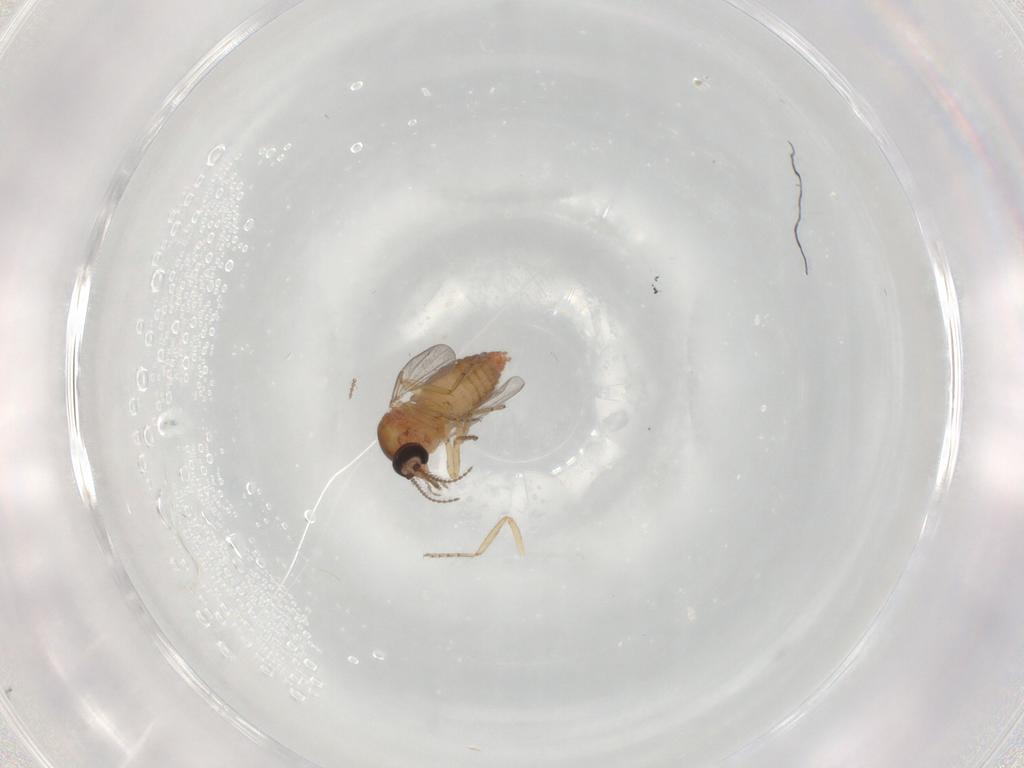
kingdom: Animalia
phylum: Arthropoda
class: Insecta
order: Diptera
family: Ceratopogonidae
